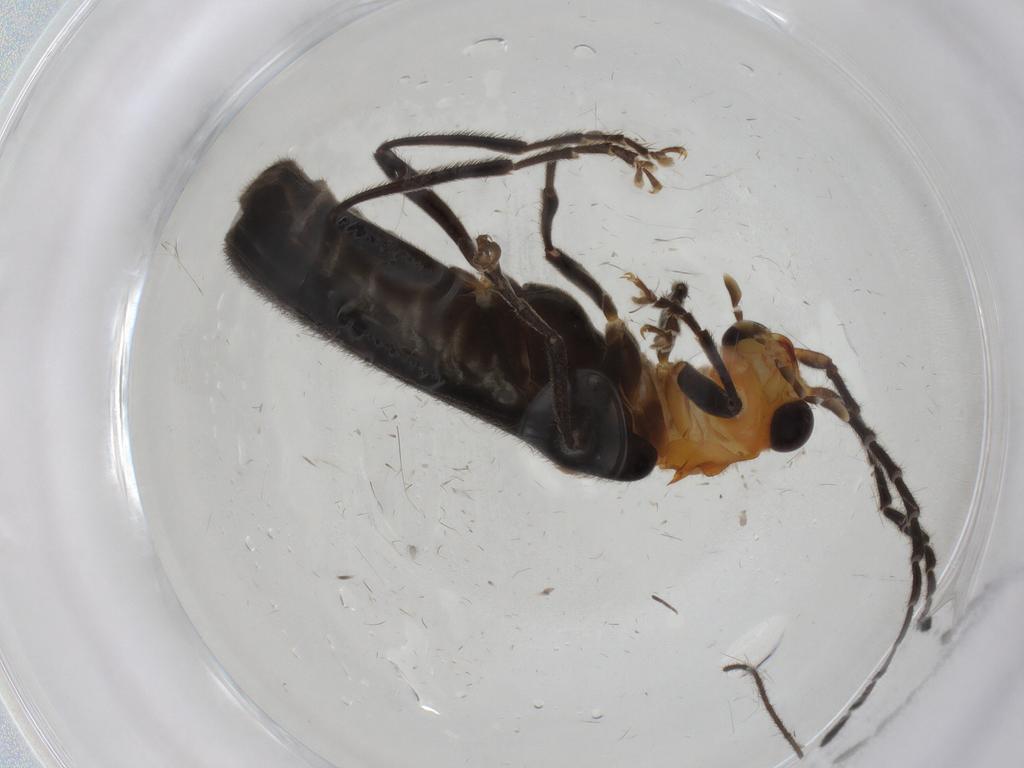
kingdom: Animalia
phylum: Arthropoda
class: Insecta
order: Coleoptera
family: Cantharidae
